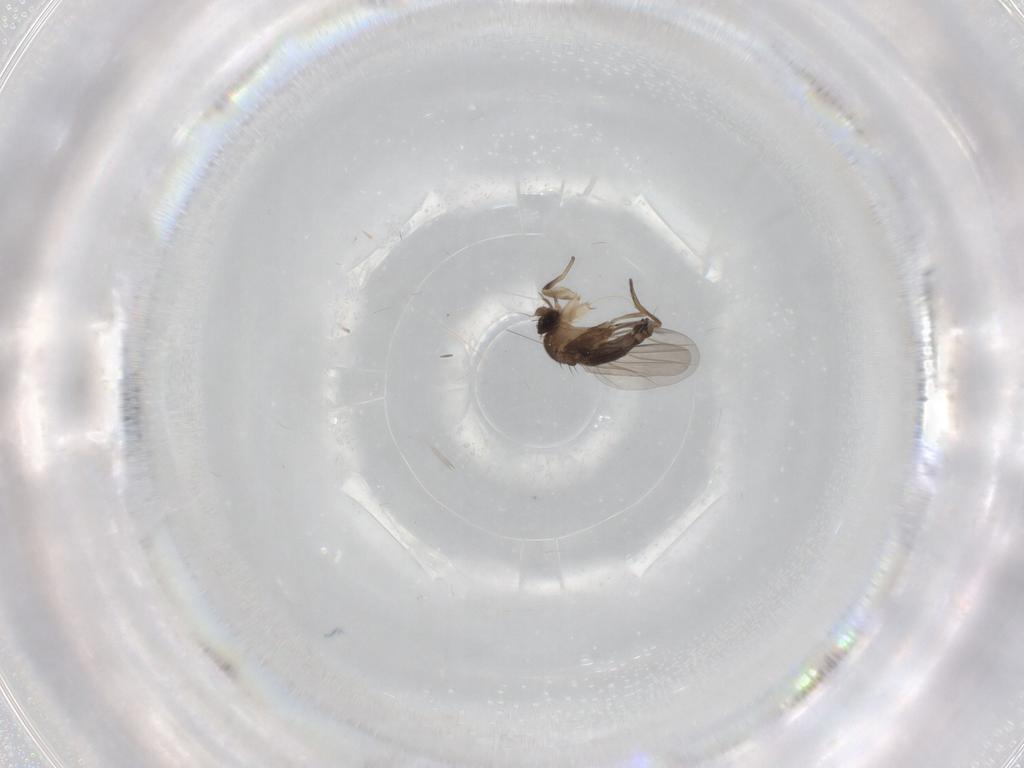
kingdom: Animalia
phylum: Arthropoda
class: Insecta
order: Diptera
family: Phoridae
